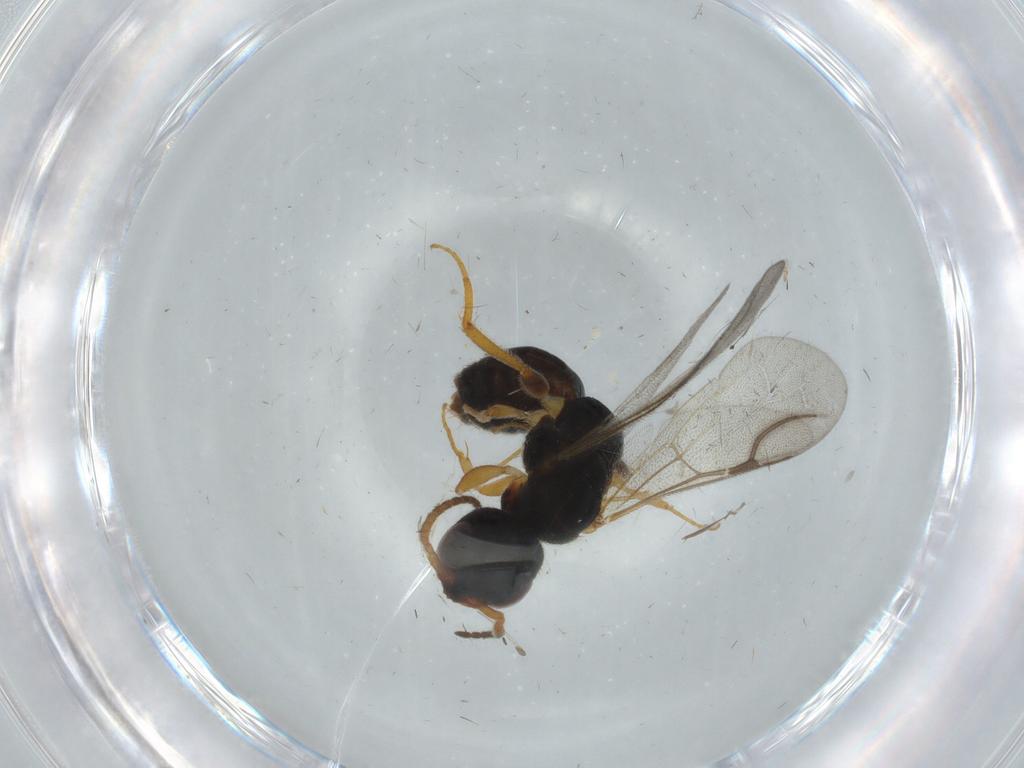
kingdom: Animalia
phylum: Arthropoda
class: Insecta
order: Hymenoptera
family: Bethylidae
